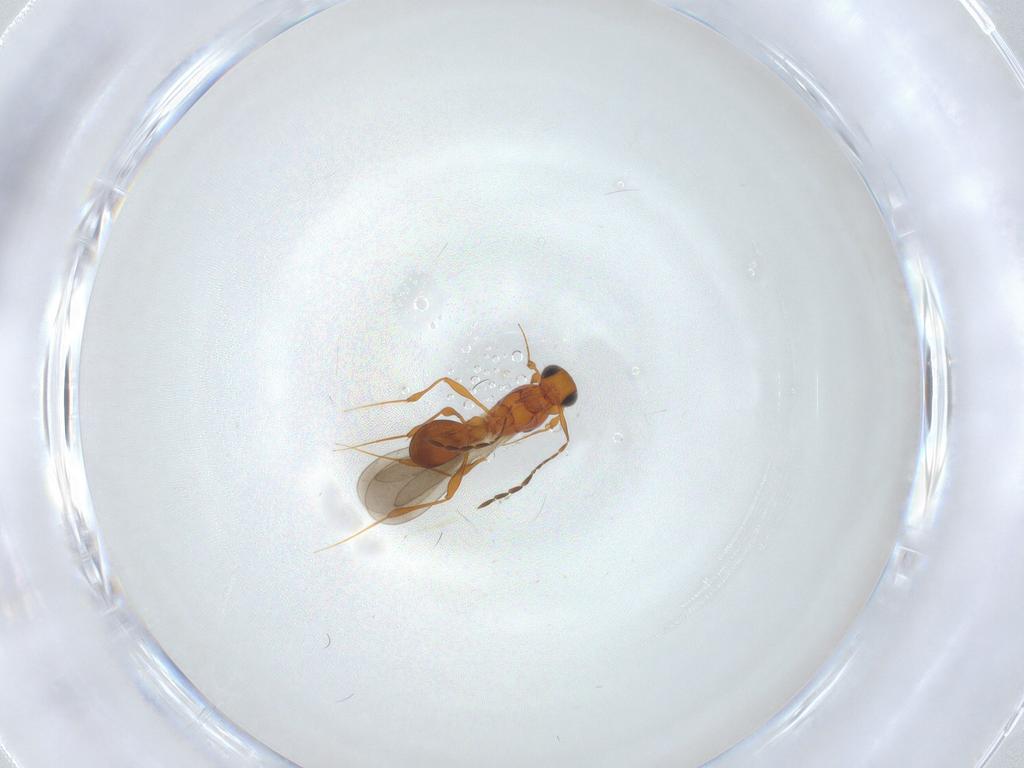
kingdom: Animalia
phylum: Arthropoda
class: Insecta
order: Hymenoptera
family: Platygastridae
